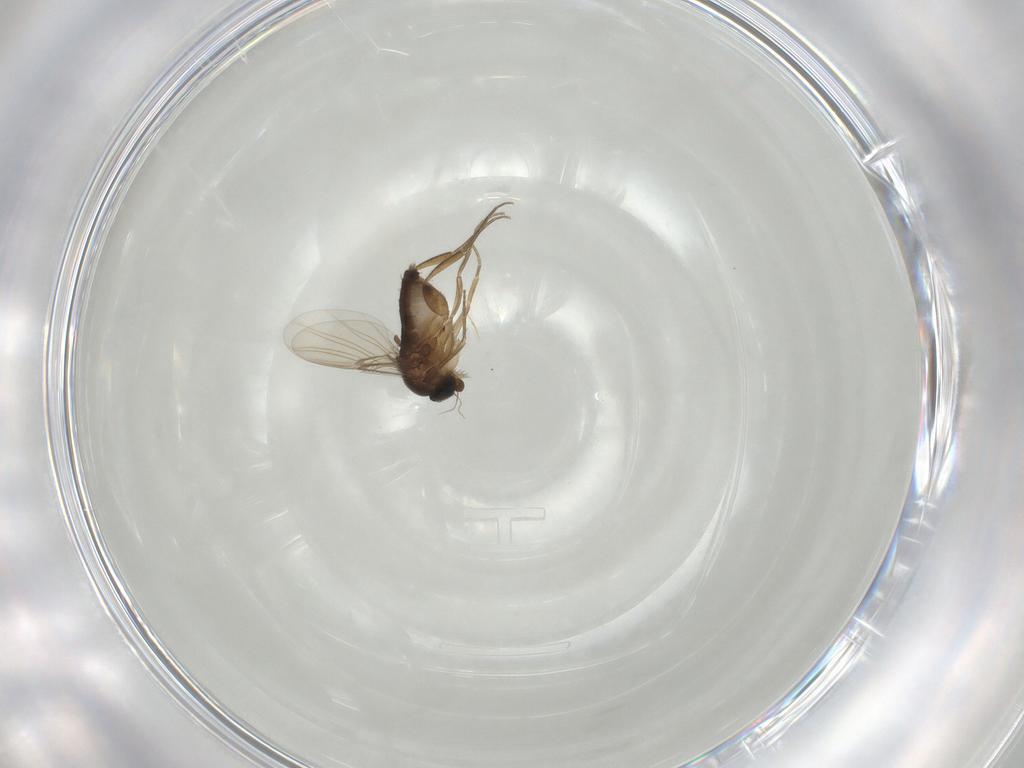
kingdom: Animalia
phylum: Arthropoda
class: Insecta
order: Diptera
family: Phoridae
